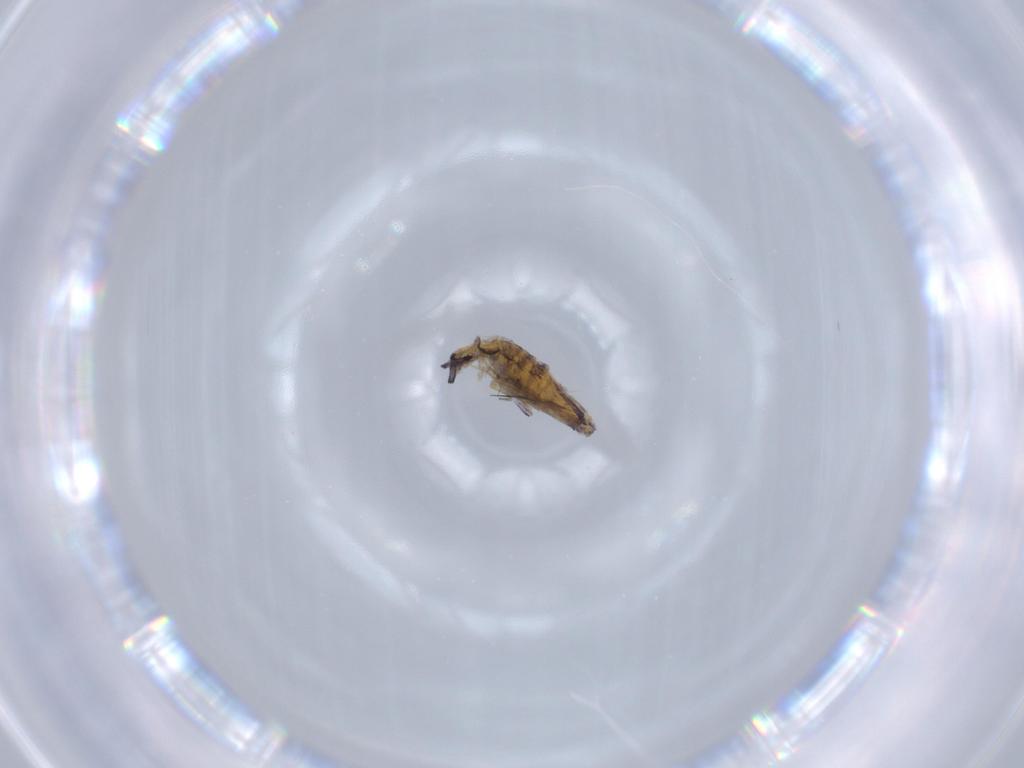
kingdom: Animalia
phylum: Arthropoda
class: Collembola
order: Poduromorpha
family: Hypogastruridae
